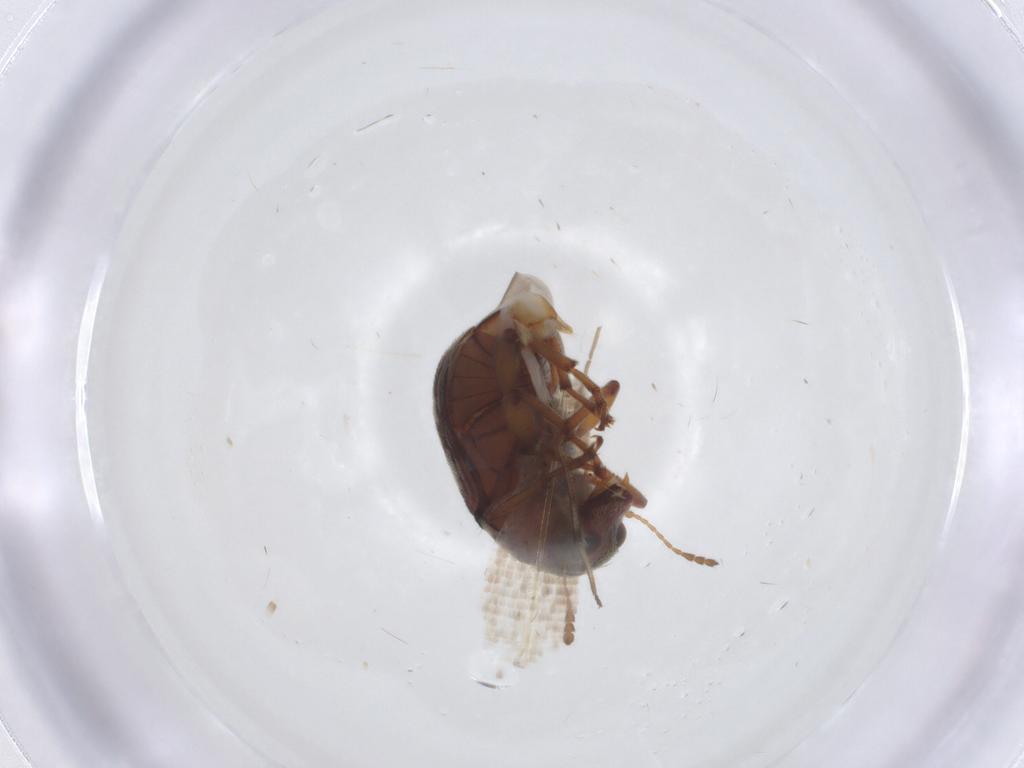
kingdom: Animalia
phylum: Arthropoda
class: Insecta
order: Coleoptera
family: Anthribidae
